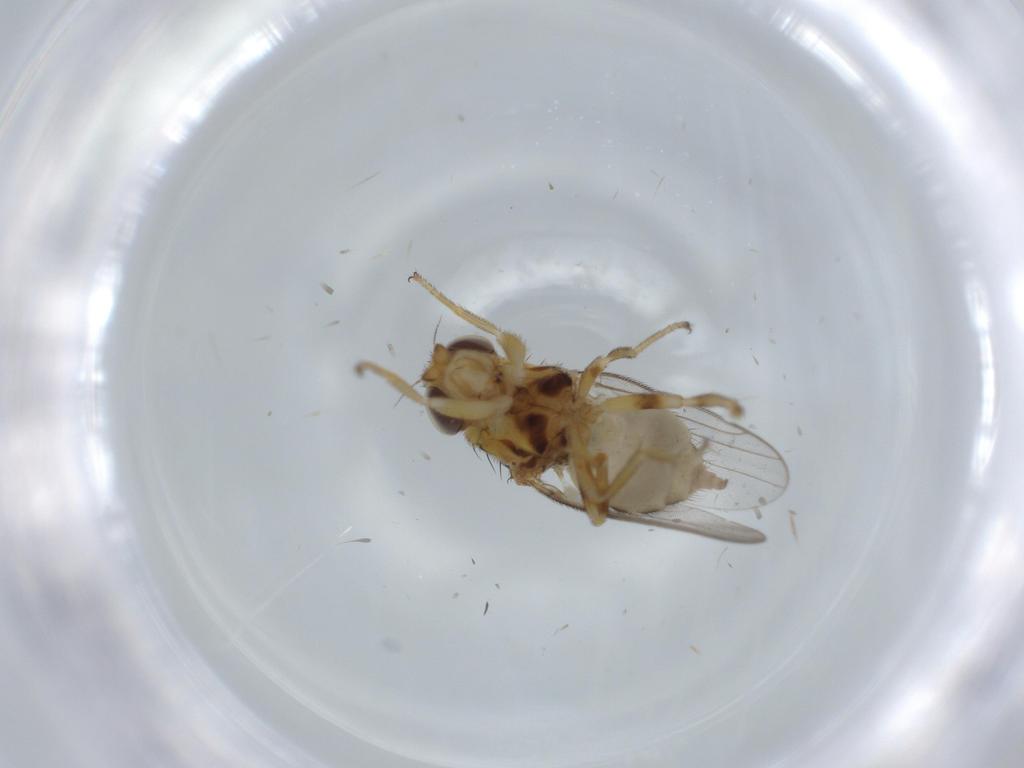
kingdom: Animalia
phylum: Arthropoda
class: Insecta
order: Diptera
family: Chloropidae
